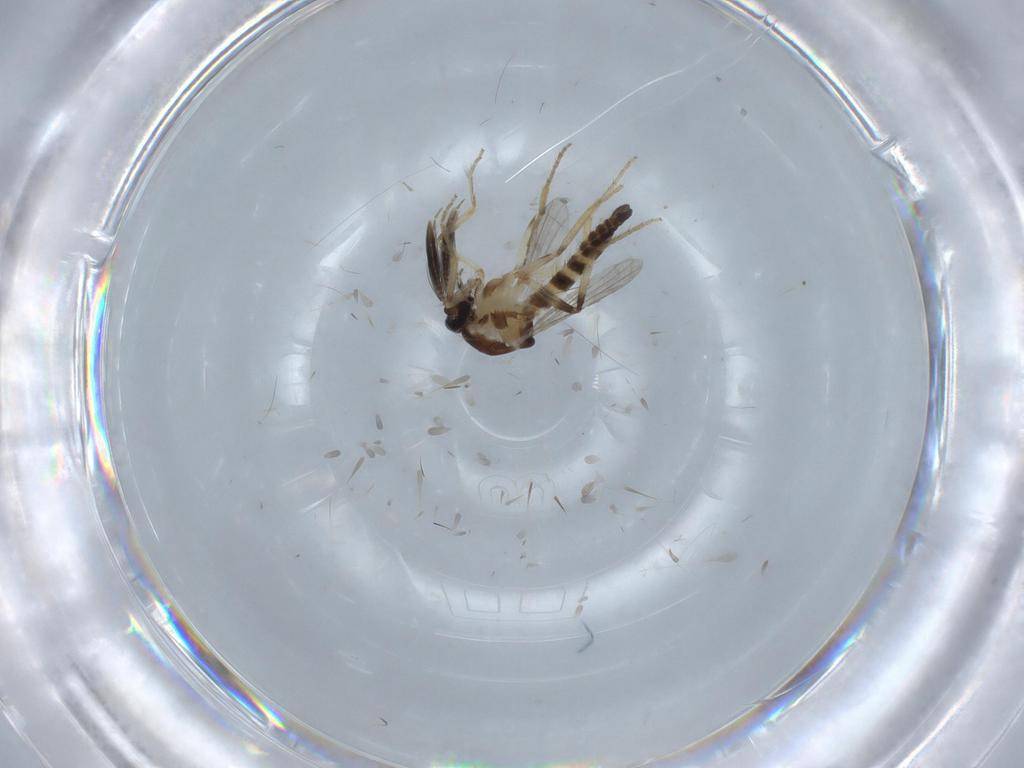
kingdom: Animalia
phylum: Arthropoda
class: Insecta
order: Diptera
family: Ceratopogonidae
